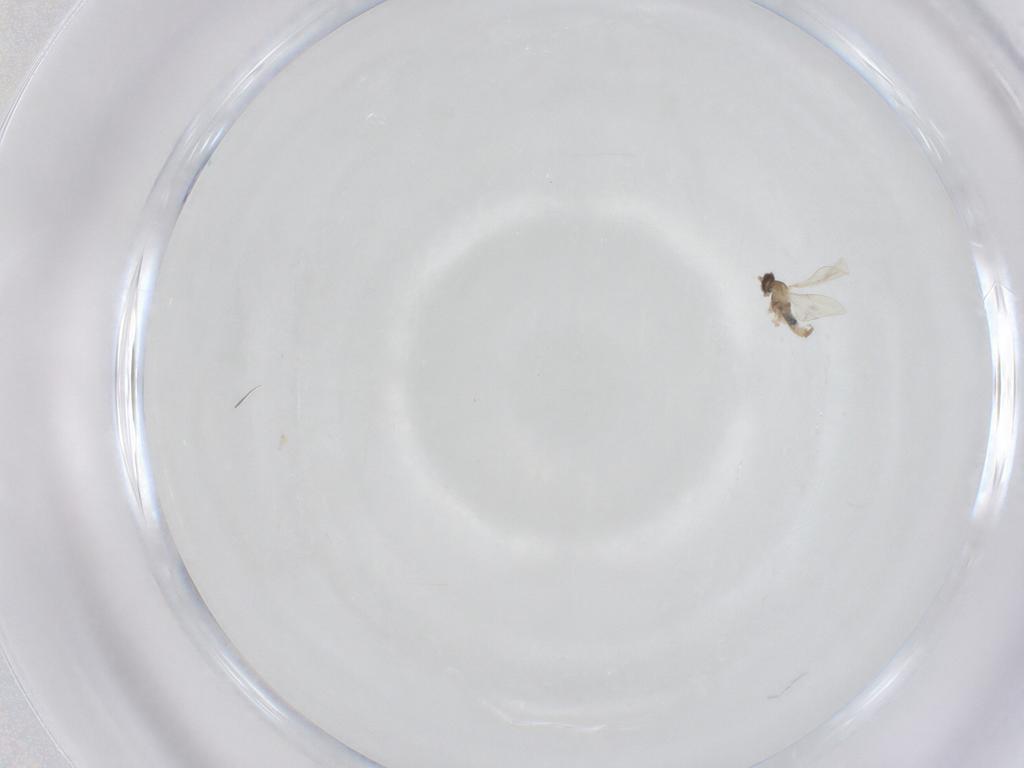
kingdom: Animalia
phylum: Arthropoda
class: Insecta
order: Diptera
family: Cecidomyiidae
